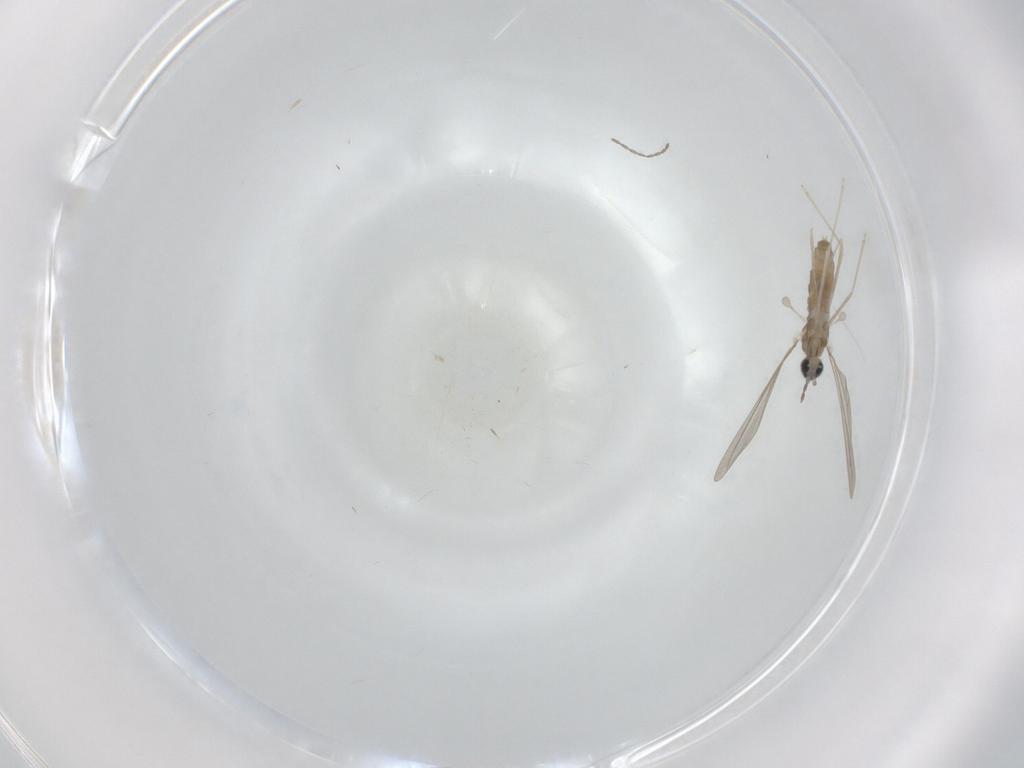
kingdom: Animalia
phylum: Arthropoda
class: Insecta
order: Diptera
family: Cecidomyiidae
